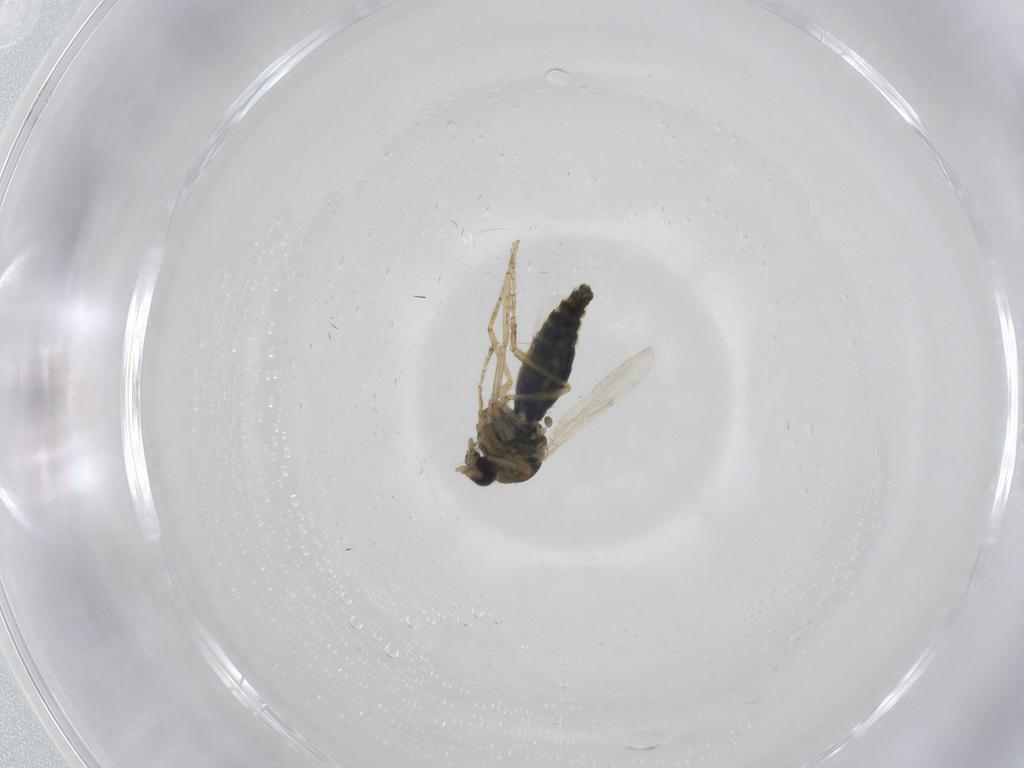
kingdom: Animalia
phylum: Arthropoda
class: Insecta
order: Diptera
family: Ceratopogonidae
